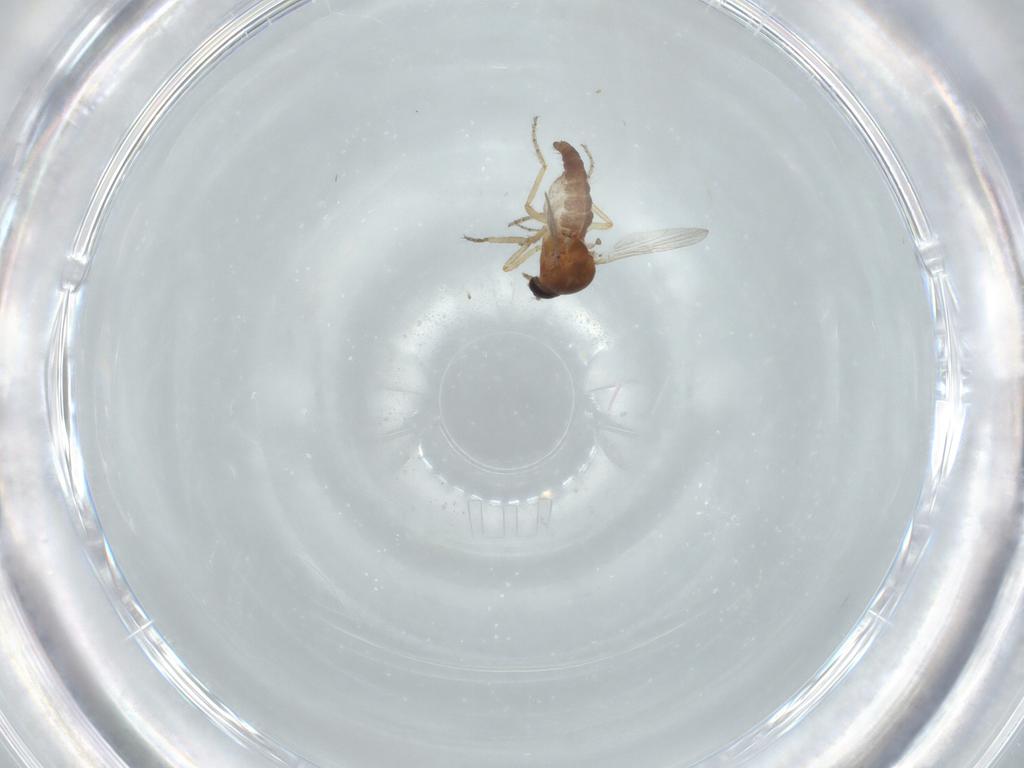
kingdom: Animalia
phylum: Arthropoda
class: Insecta
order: Diptera
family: Ceratopogonidae
